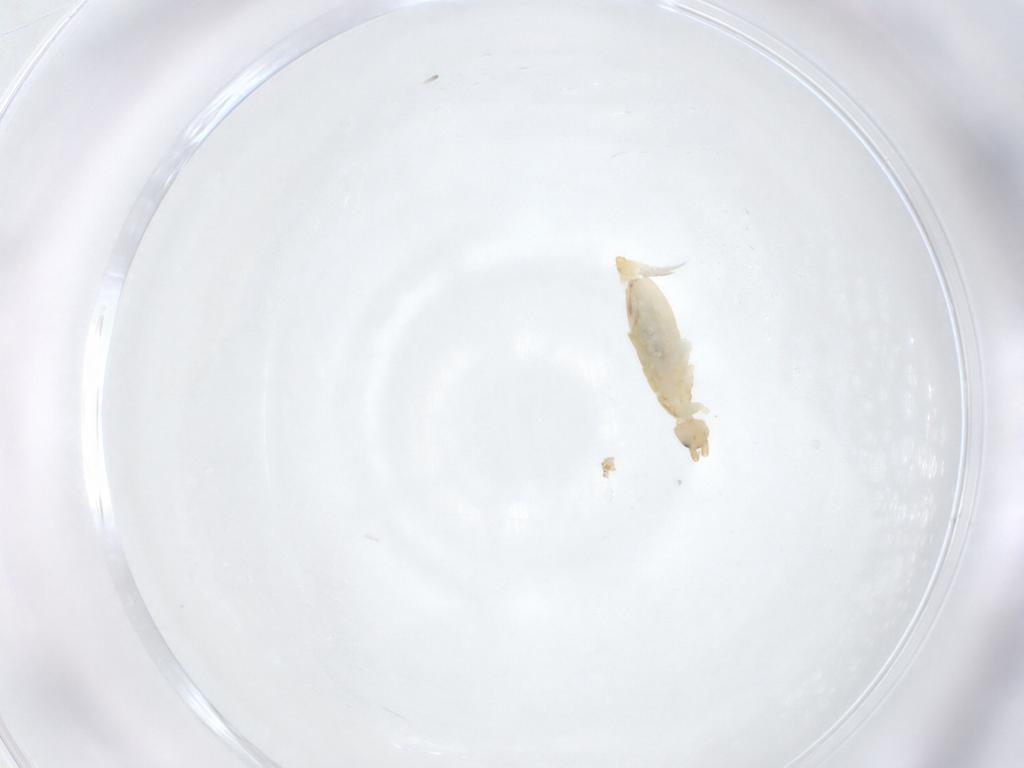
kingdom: Animalia
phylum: Arthropoda
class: Collembola
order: Entomobryomorpha
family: Entomobryidae
